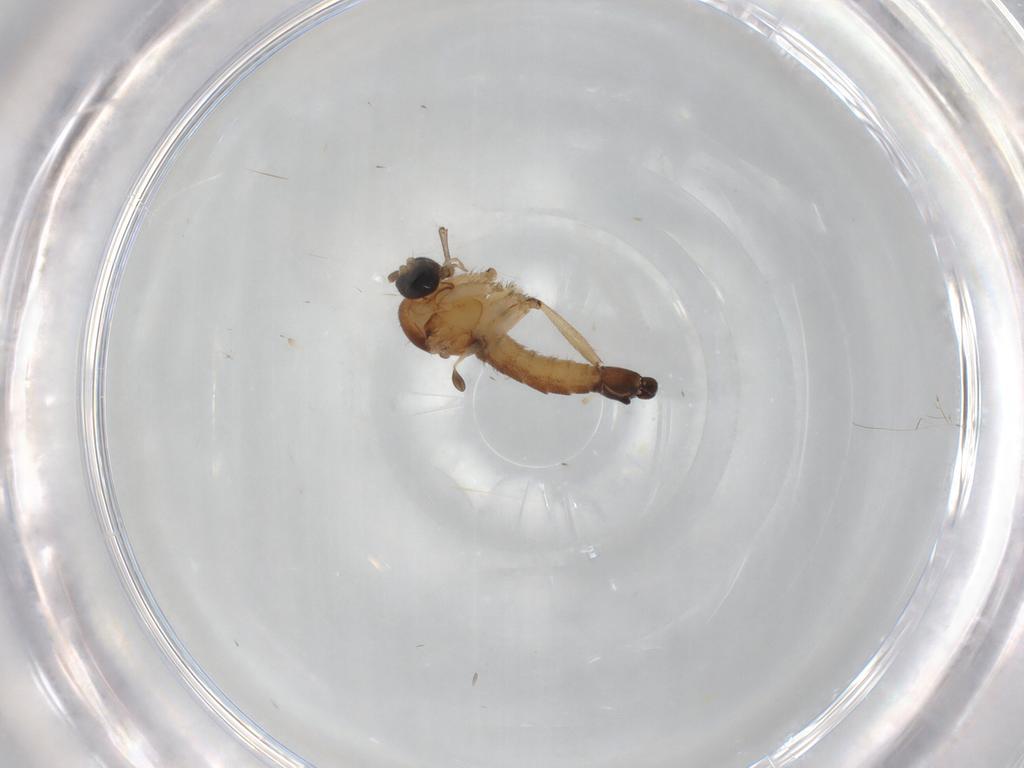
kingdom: Animalia
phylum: Arthropoda
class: Insecta
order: Diptera
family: Sciaridae
